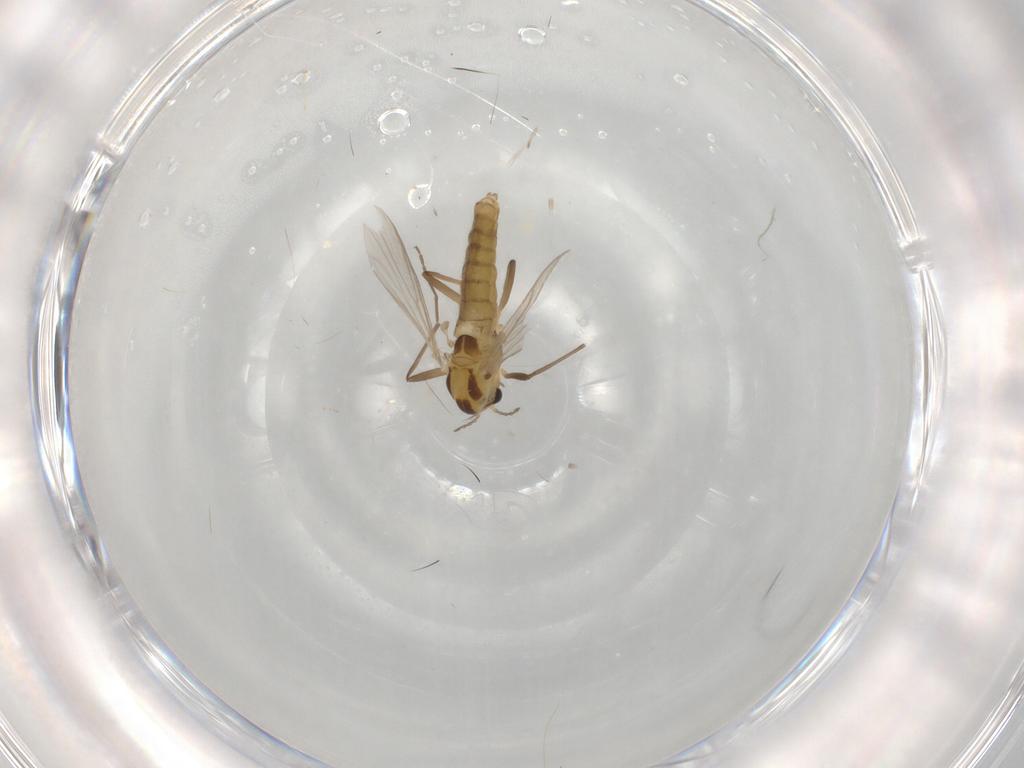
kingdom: Animalia
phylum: Arthropoda
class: Insecta
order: Diptera
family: Chironomidae
